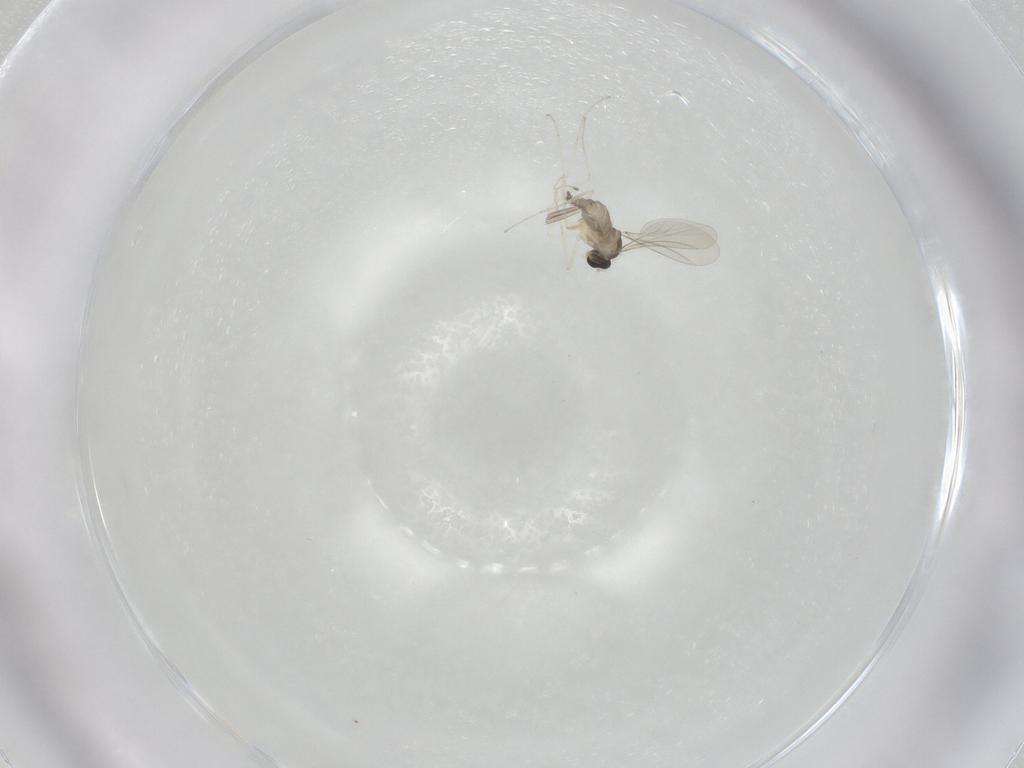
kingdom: Animalia
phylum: Arthropoda
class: Insecta
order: Diptera
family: Cecidomyiidae
